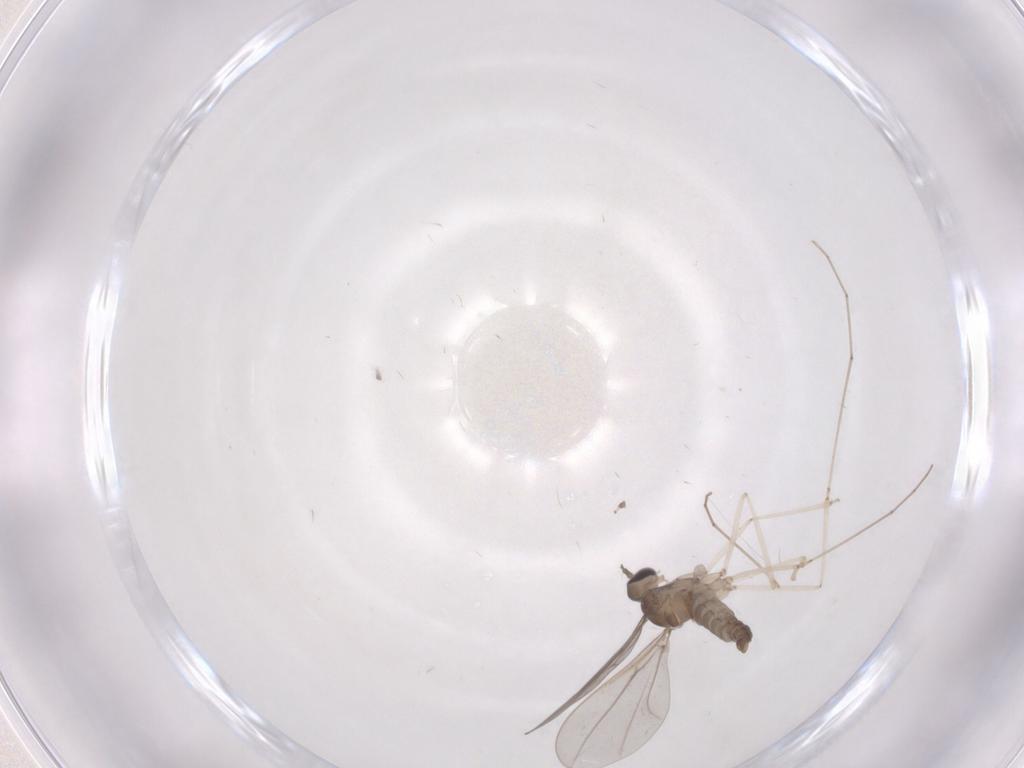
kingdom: Animalia
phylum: Arthropoda
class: Insecta
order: Diptera
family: Cecidomyiidae
